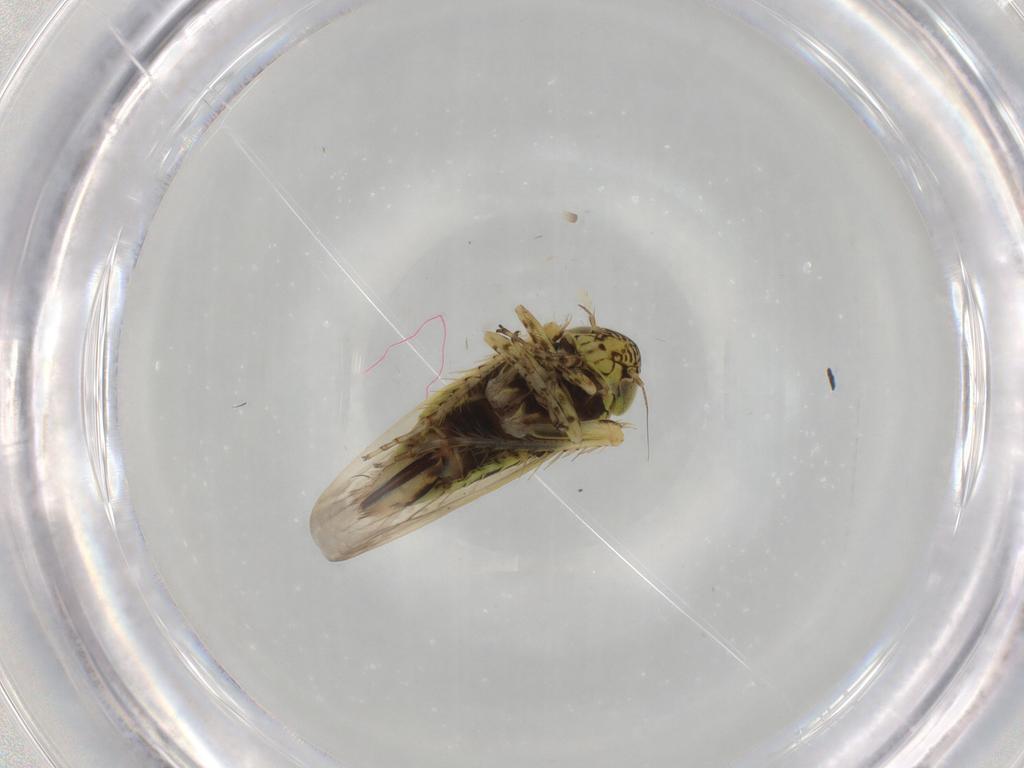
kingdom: Animalia
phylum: Arthropoda
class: Insecta
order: Hemiptera
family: Cicadellidae
